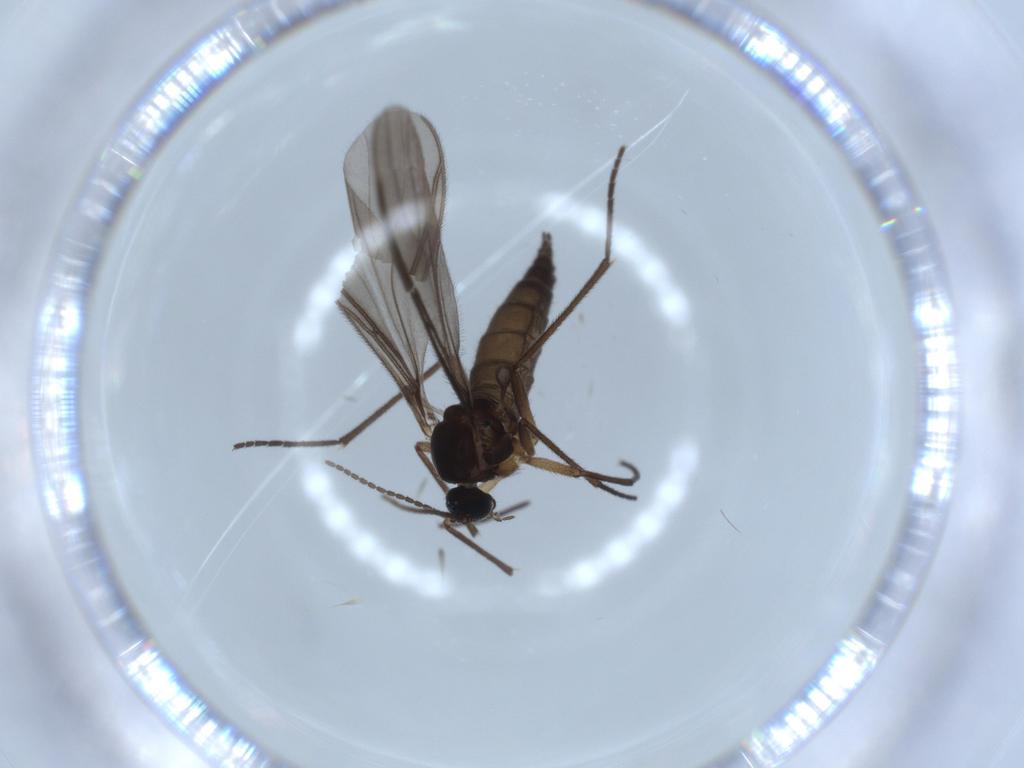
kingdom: Animalia
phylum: Arthropoda
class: Insecta
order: Diptera
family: Sciaridae
